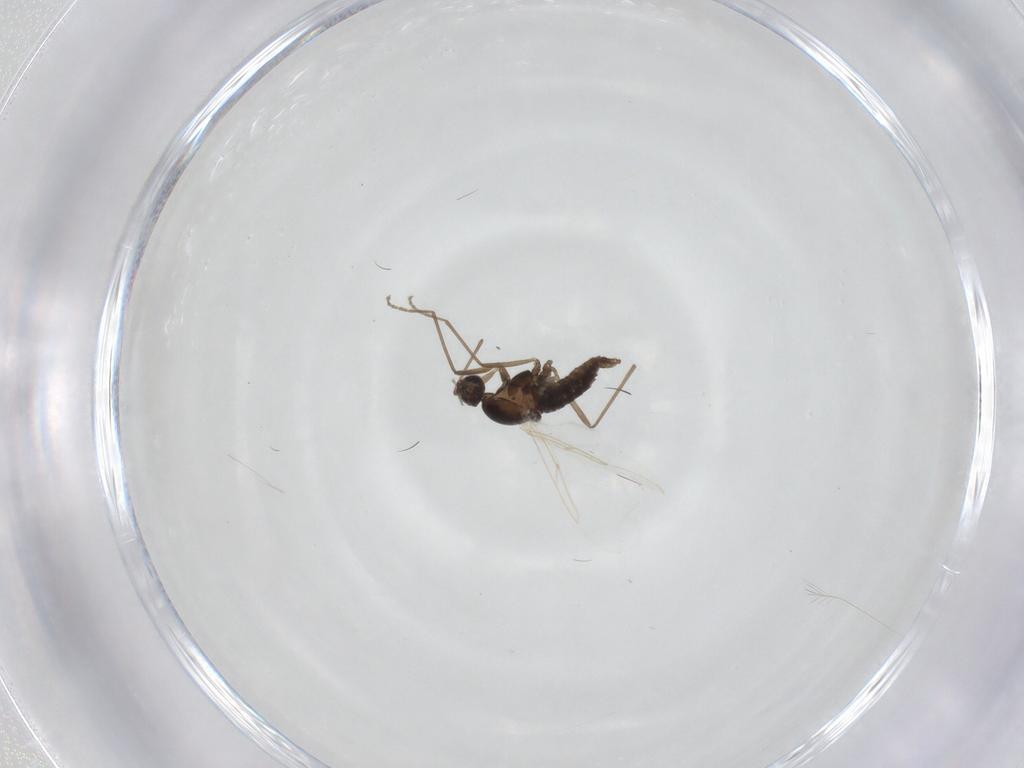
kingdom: Animalia
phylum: Arthropoda
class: Insecta
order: Diptera
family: Cecidomyiidae
